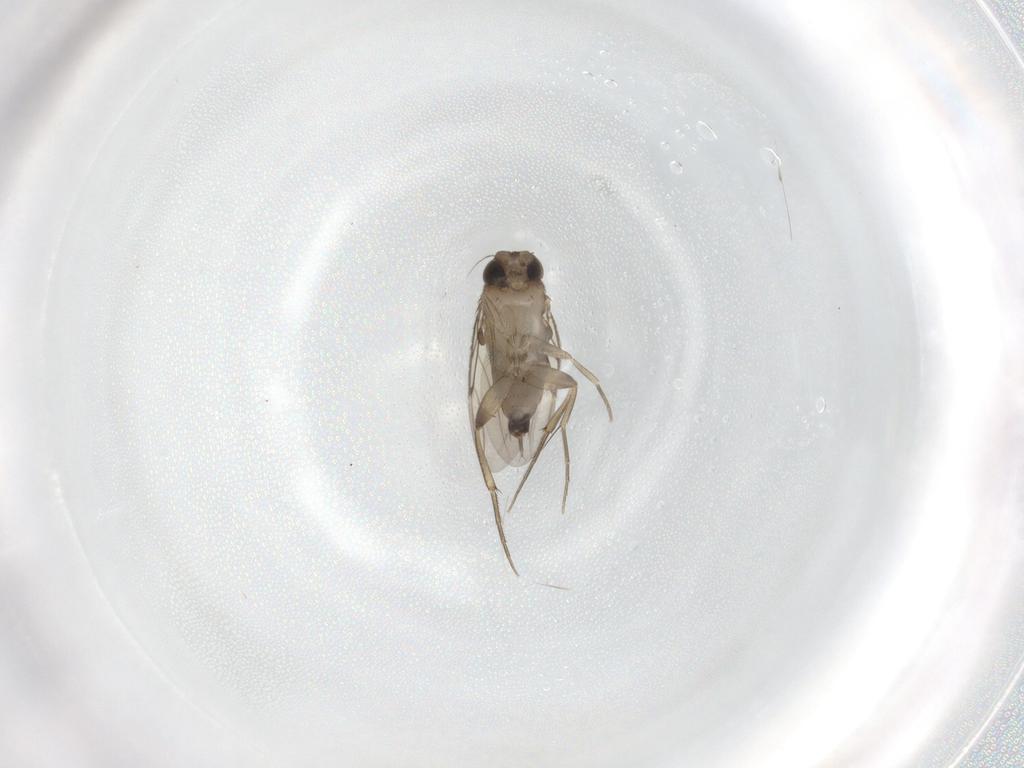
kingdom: Animalia
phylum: Arthropoda
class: Insecta
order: Diptera
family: Phoridae
